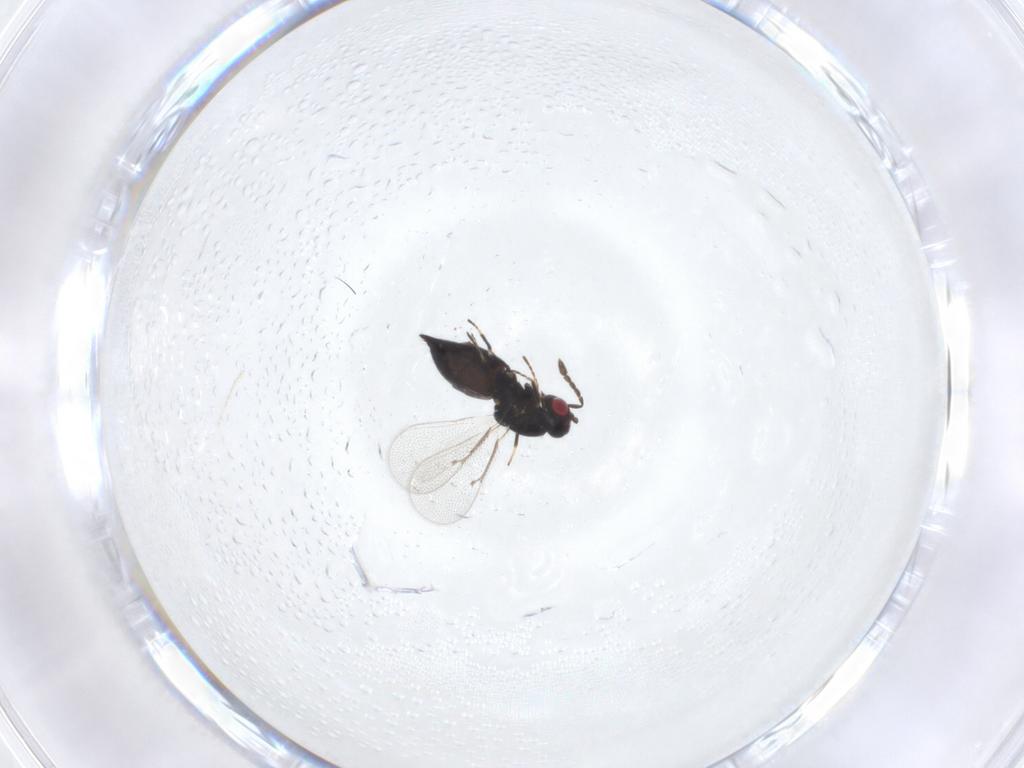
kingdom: Animalia
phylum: Arthropoda
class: Insecta
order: Hymenoptera
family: Eulophidae
